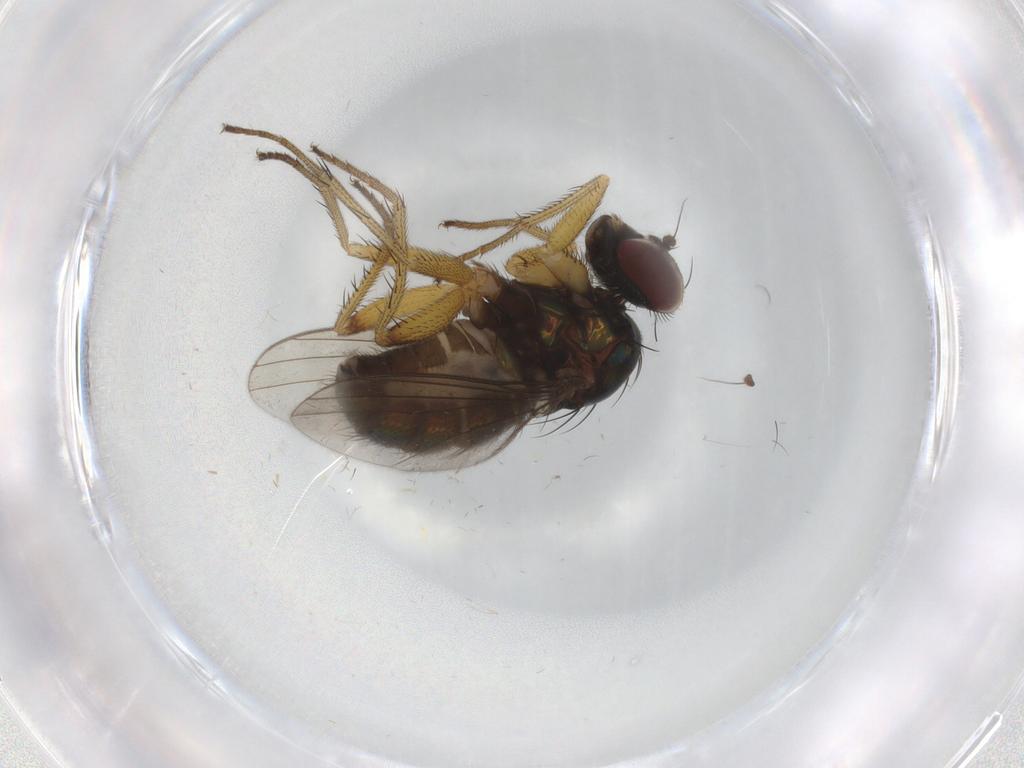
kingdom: Animalia
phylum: Arthropoda
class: Insecta
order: Diptera
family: Dolichopodidae
